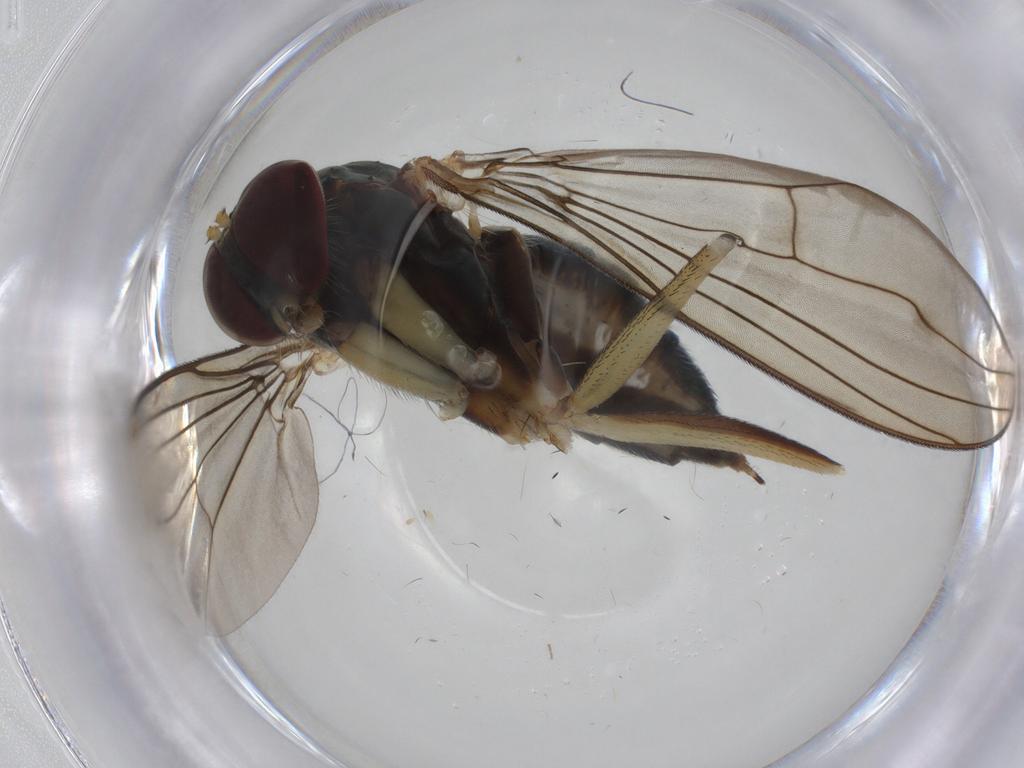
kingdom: Animalia
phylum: Arthropoda
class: Insecta
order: Diptera
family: Dolichopodidae
